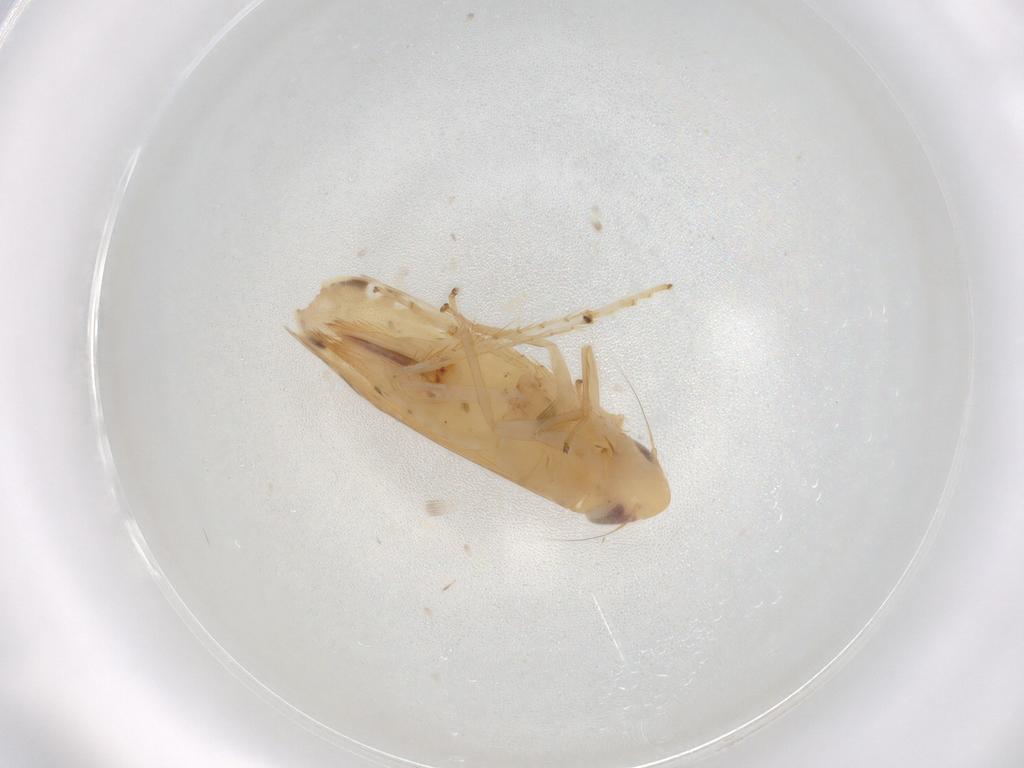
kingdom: Animalia
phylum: Arthropoda
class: Insecta
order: Hemiptera
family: Cicadellidae
